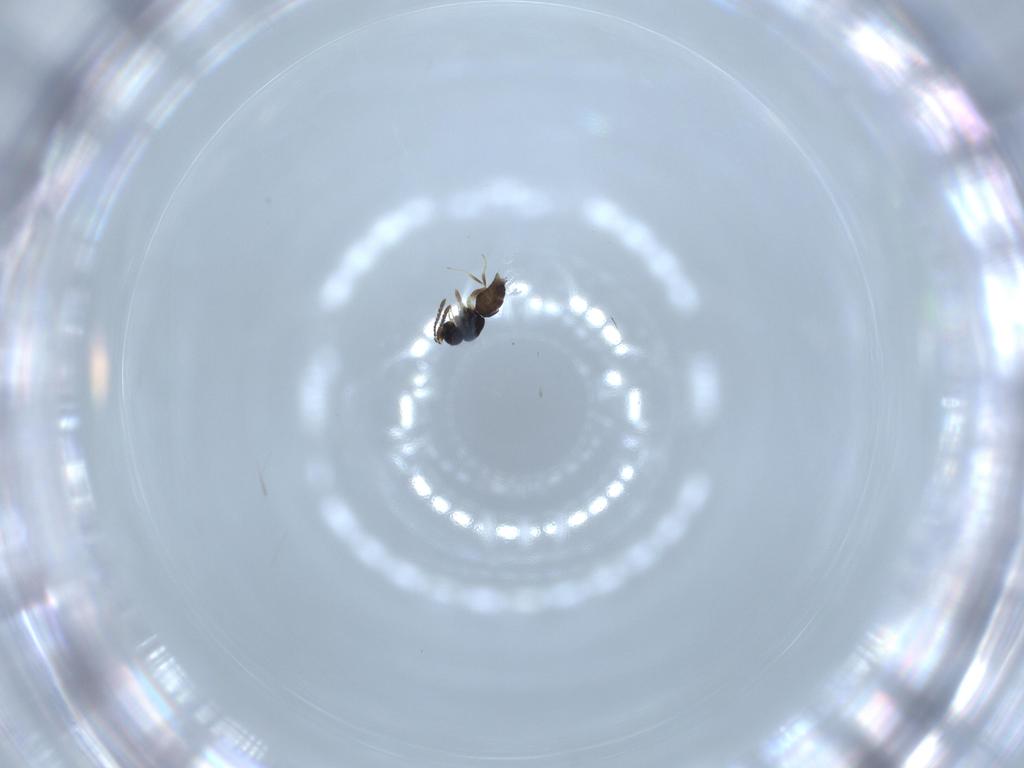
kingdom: Animalia
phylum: Arthropoda
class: Insecta
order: Hymenoptera
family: Ceraphronidae
